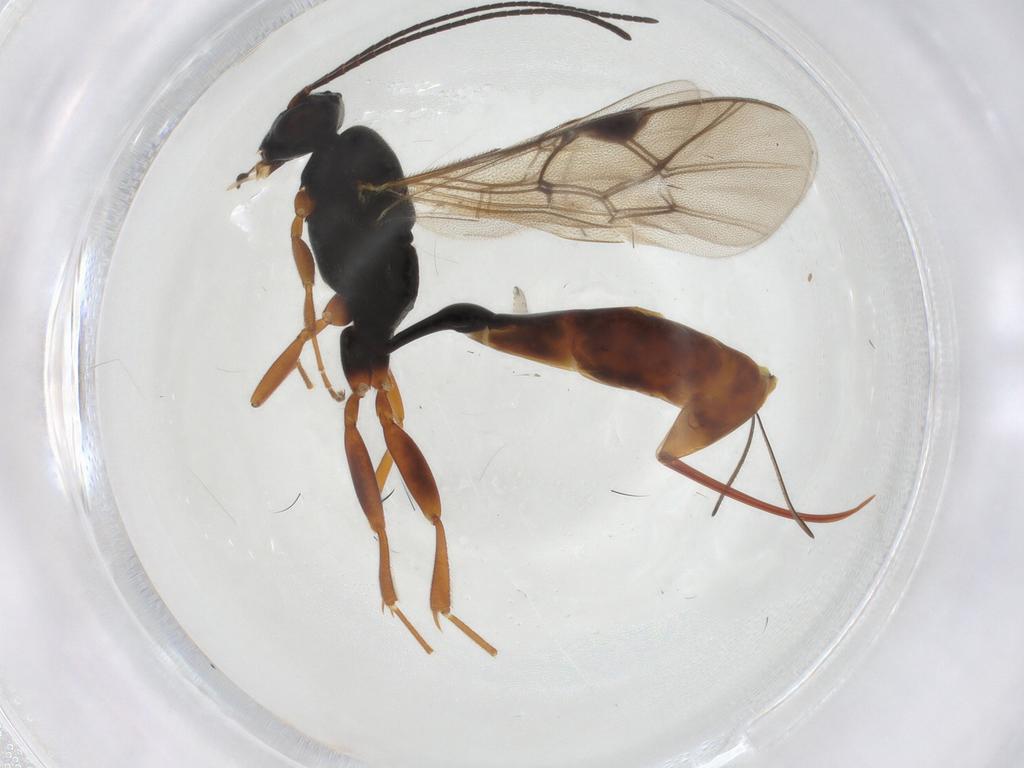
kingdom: Animalia
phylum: Arthropoda
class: Insecta
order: Hymenoptera
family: Ichneumonidae
